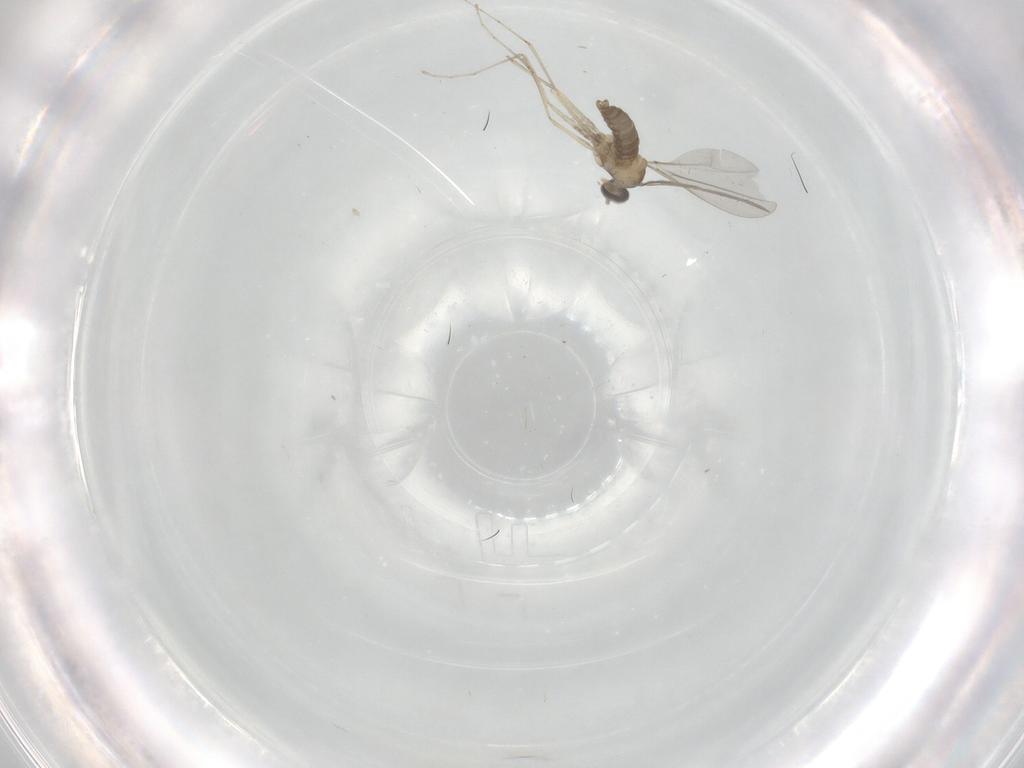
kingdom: Animalia
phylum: Arthropoda
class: Insecta
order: Diptera
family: Cecidomyiidae
